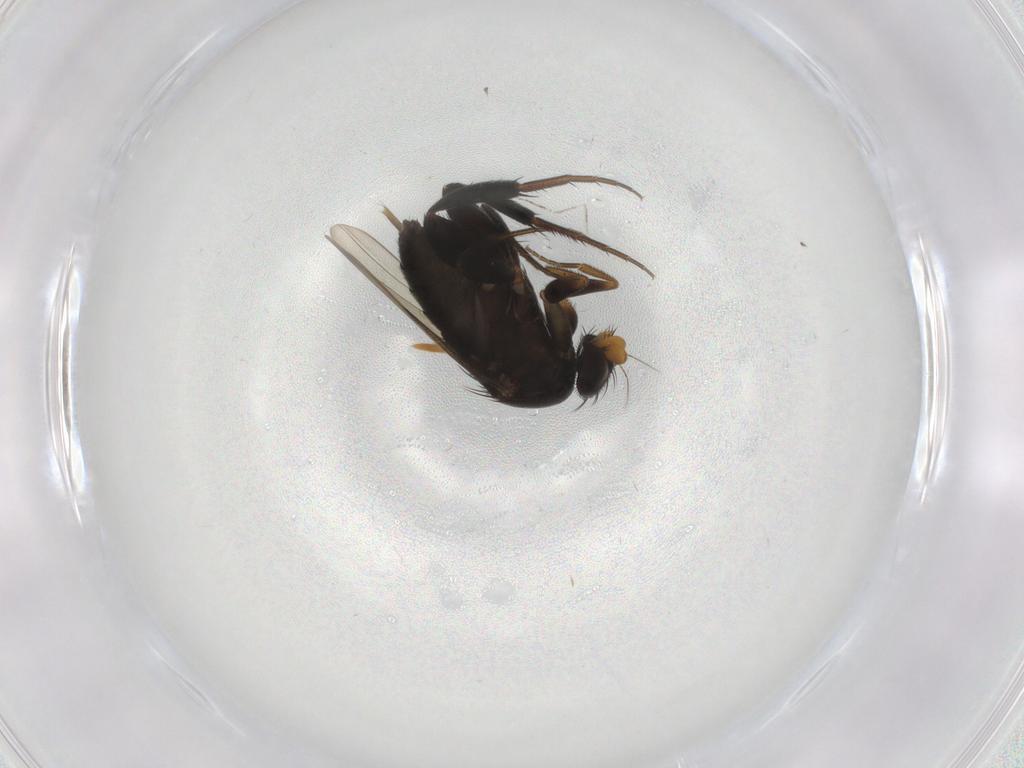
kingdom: Animalia
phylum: Arthropoda
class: Insecta
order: Diptera
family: Phoridae
